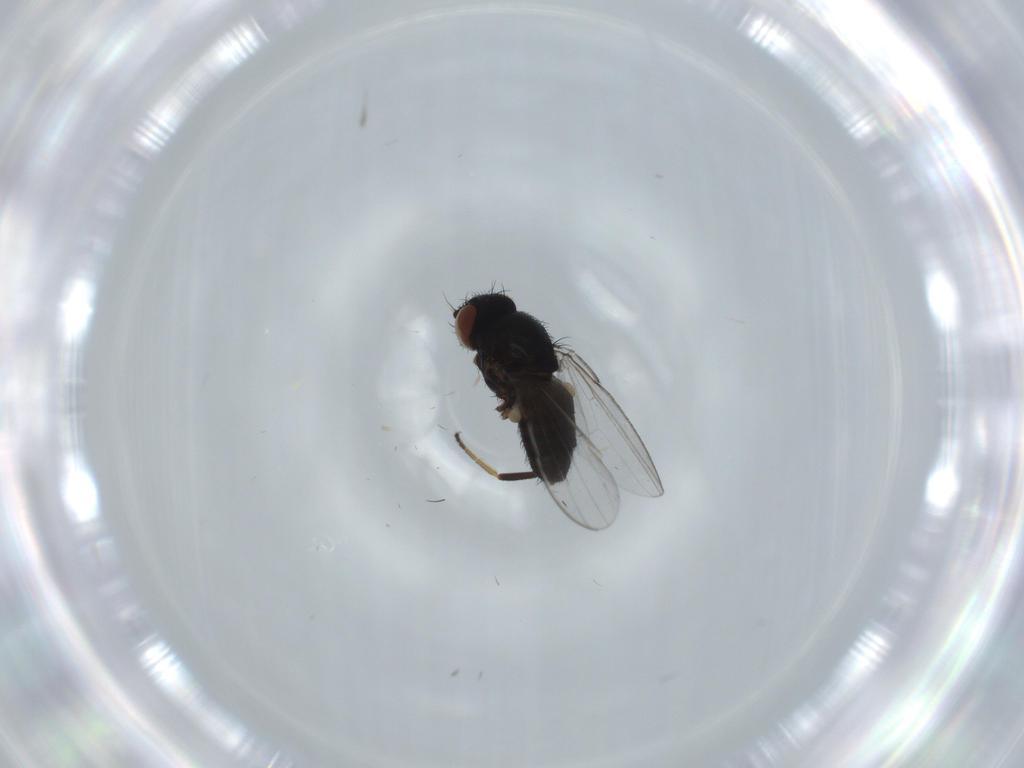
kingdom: Animalia
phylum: Arthropoda
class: Insecta
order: Diptera
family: Milichiidae
